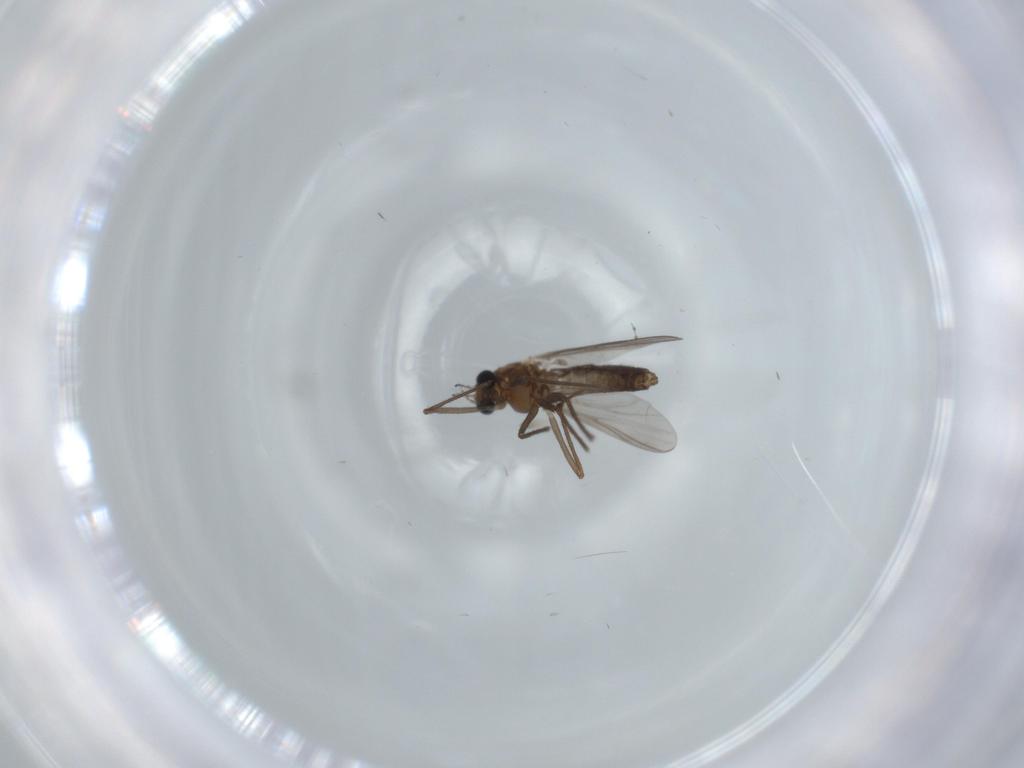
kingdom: Animalia
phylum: Arthropoda
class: Insecta
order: Diptera
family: Chironomidae
